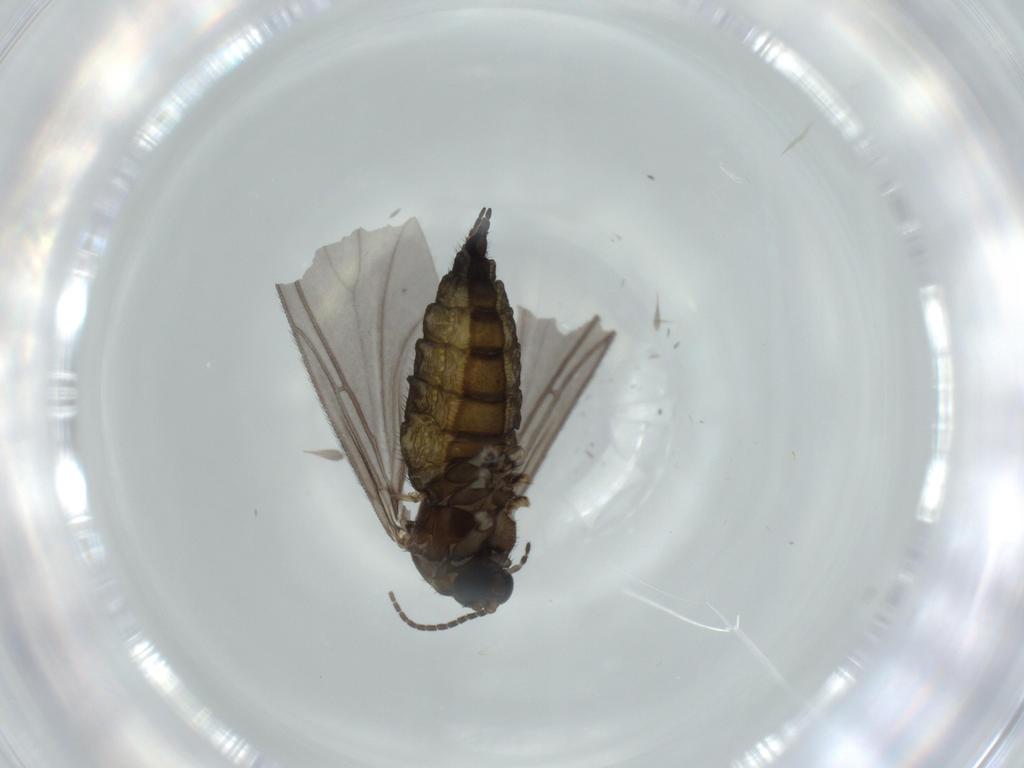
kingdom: Animalia
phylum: Arthropoda
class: Insecta
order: Diptera
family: Sciaridae
